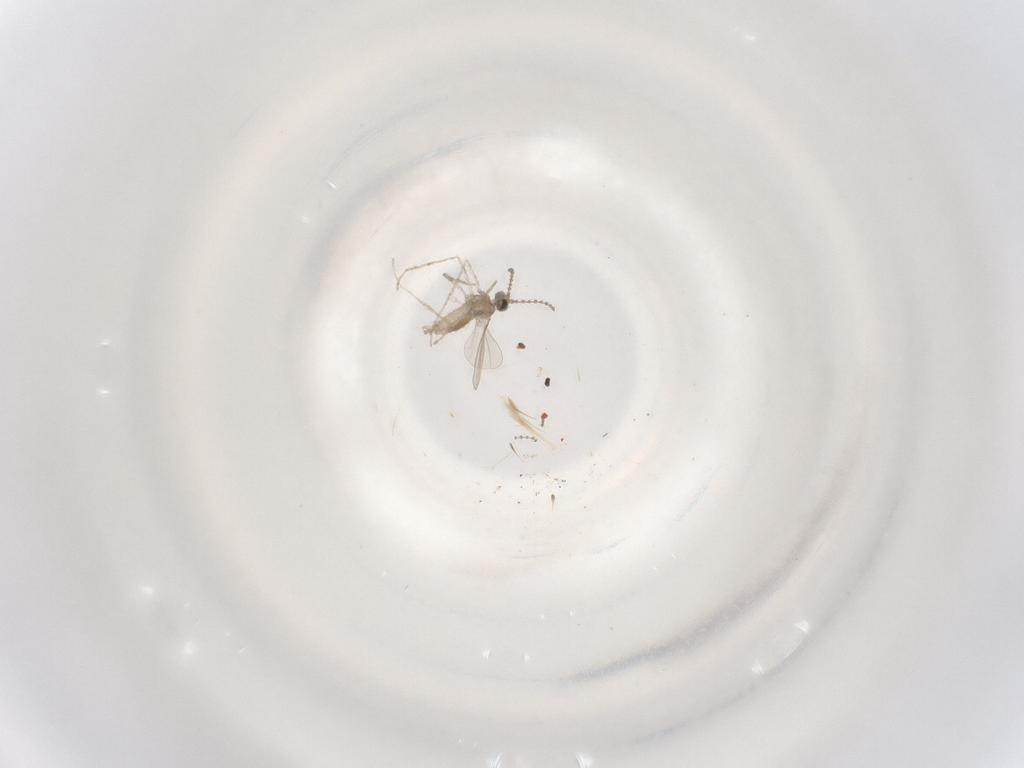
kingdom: Animalia
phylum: Arthropoda
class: Insecta
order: Diptera
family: Cecidomyiidae
